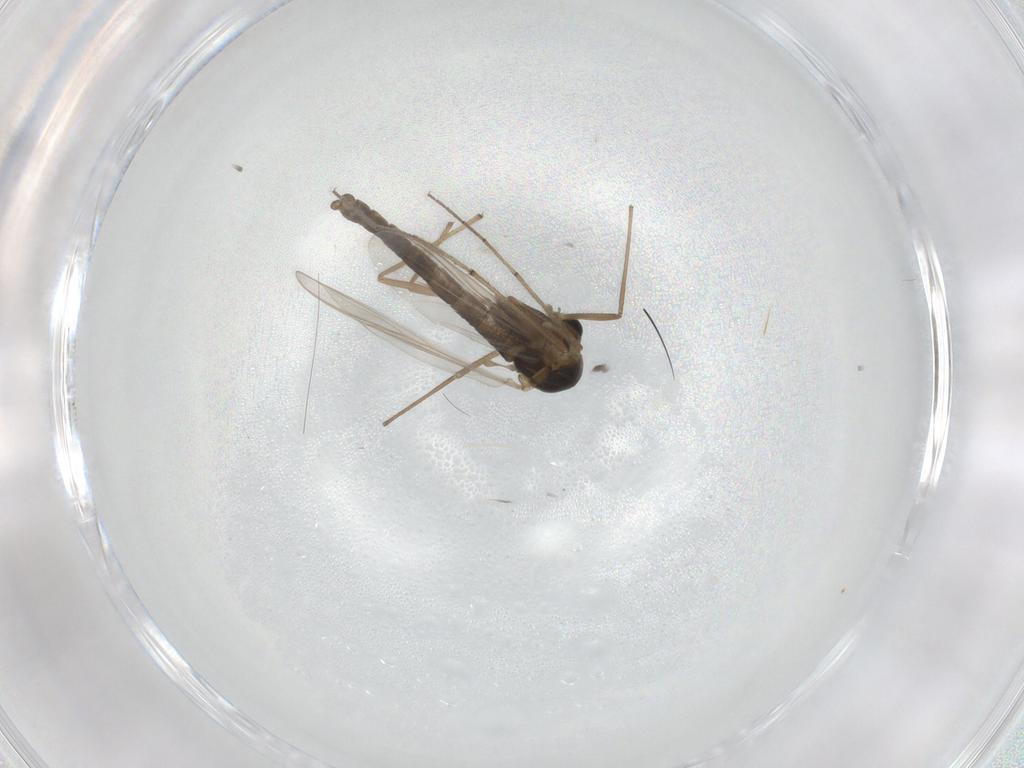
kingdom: Animalia
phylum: Arthropoda
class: Insecta
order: Diptera
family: Chironomidae
